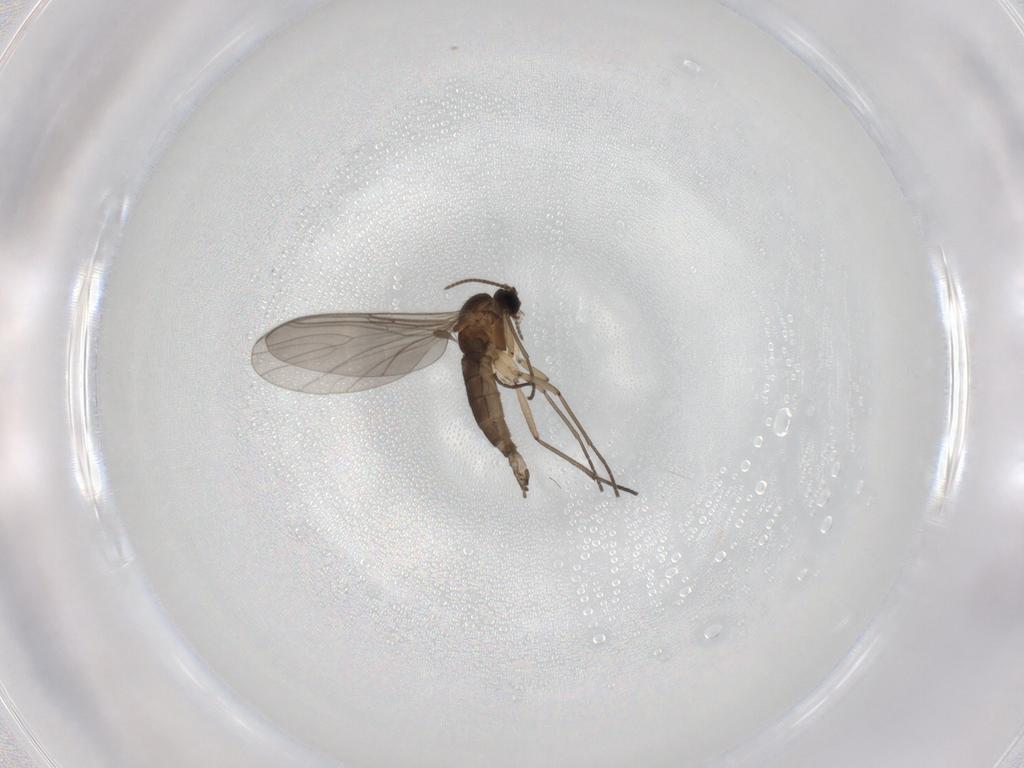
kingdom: Animalia
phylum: Arthropoda
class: Insecta
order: Diptera
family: Sciaridae
